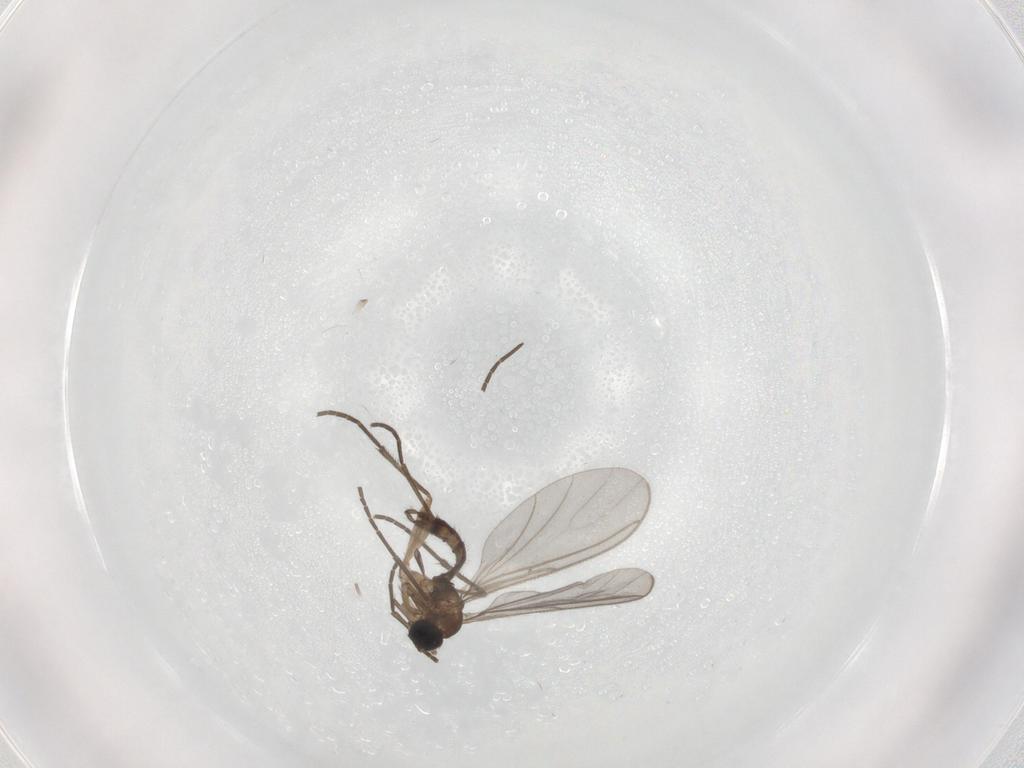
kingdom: Animalia
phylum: Arthropoda
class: Insecta
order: Diptera
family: Sciaridae
